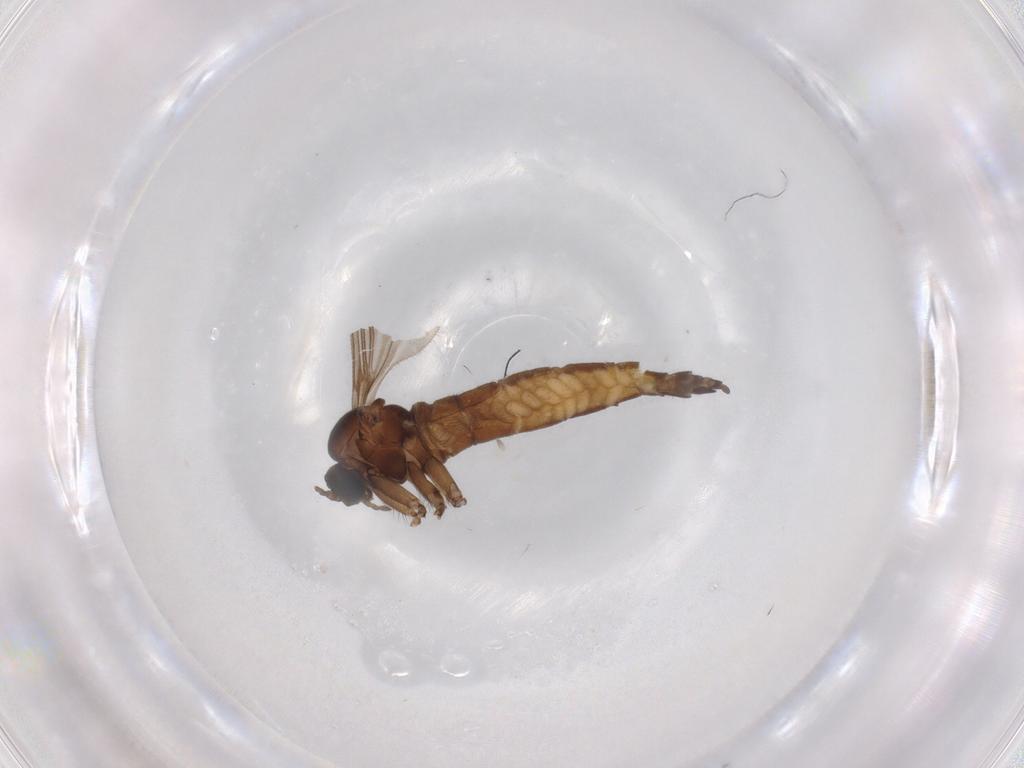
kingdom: Animalia
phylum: Arthropoda
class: Insecta
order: Diptera
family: Sciaridae
